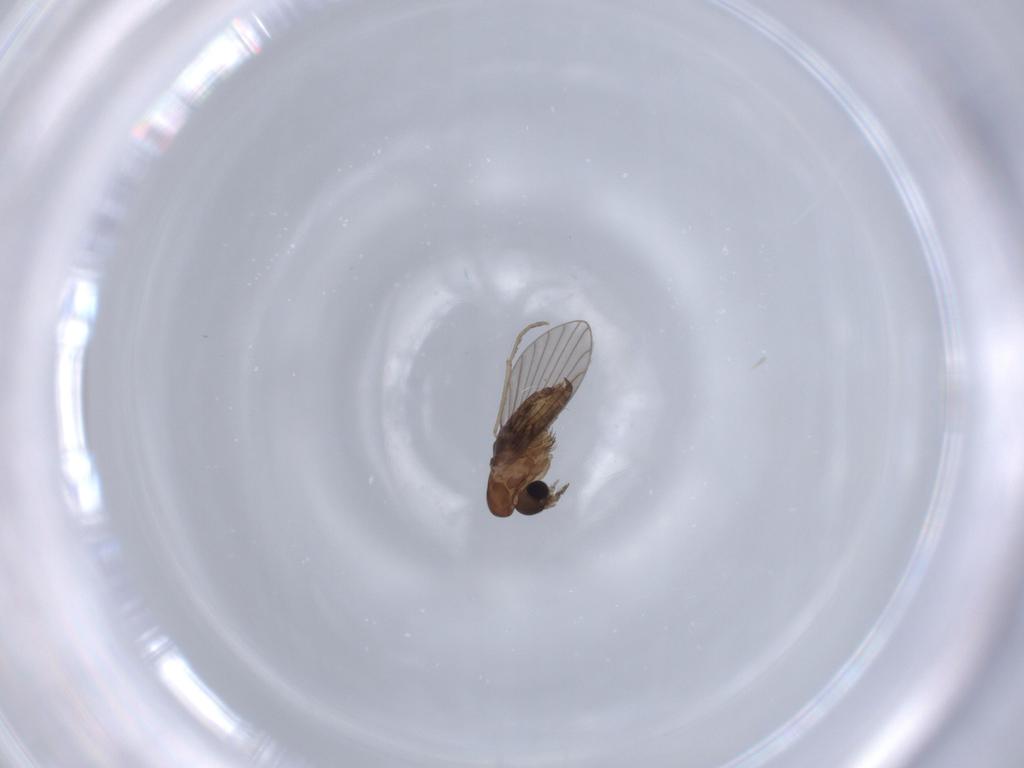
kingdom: Animalia
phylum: Arthropoda
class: Insecta
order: Diptera
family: Psychodidae
